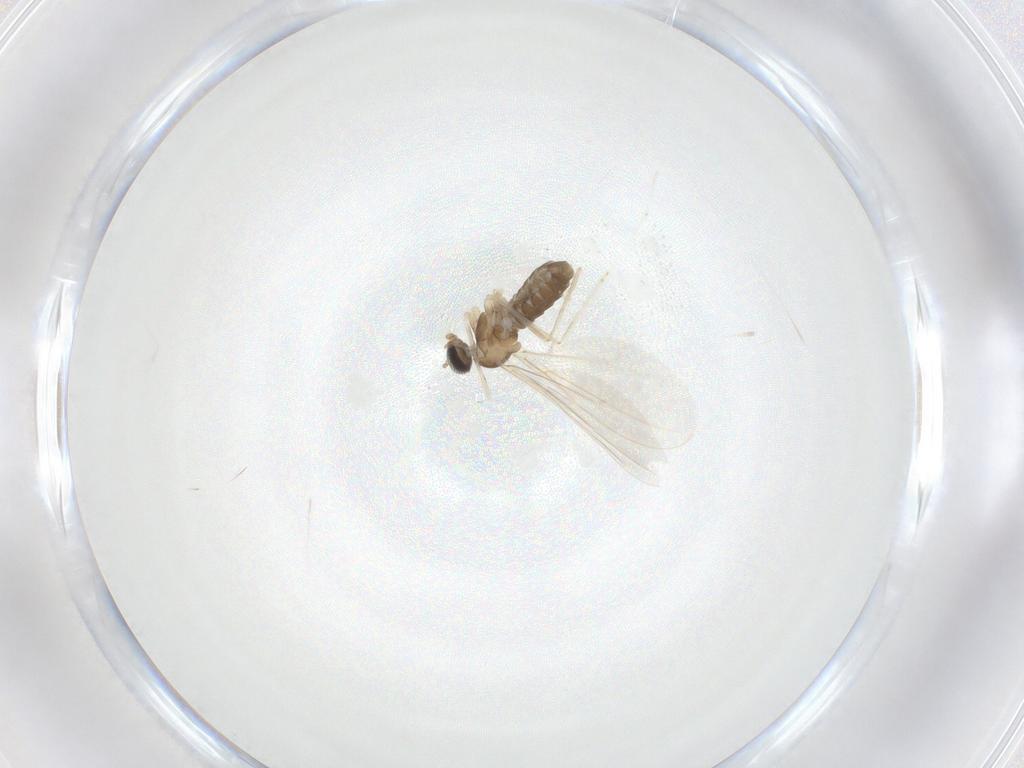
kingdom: Animalia
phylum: Arthropoda
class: Insecta
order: Diptera
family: Cecidomyiidae
